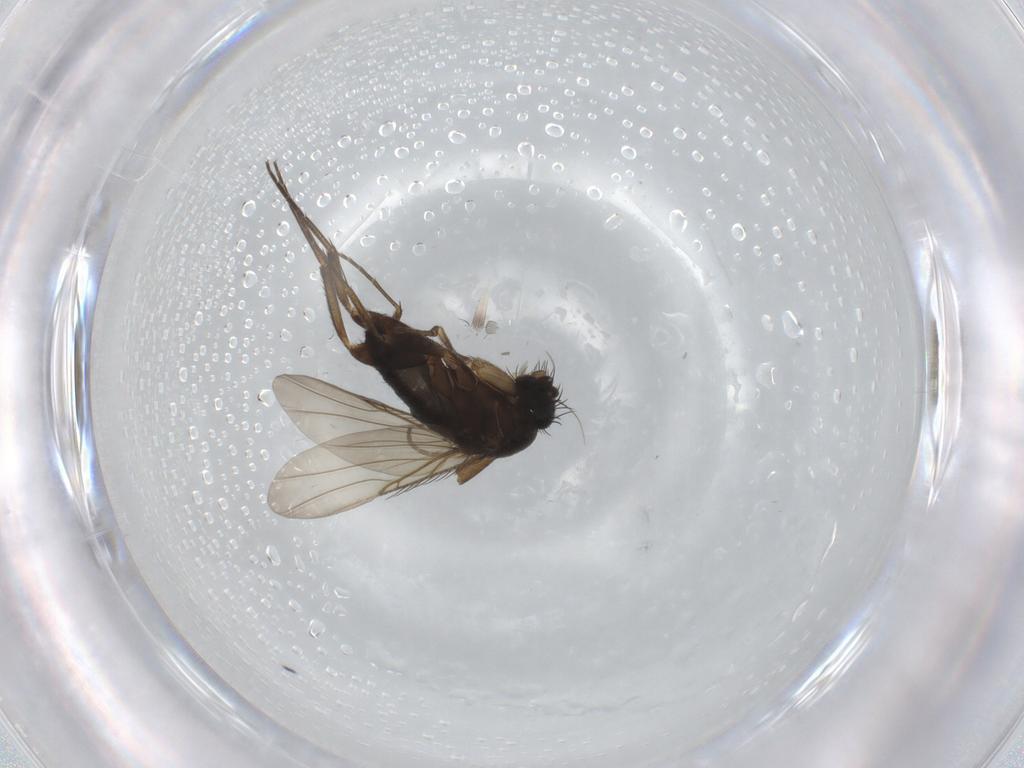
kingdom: Animalia
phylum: Arthropoda
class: Insecta
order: Diptera
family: Phoridae
